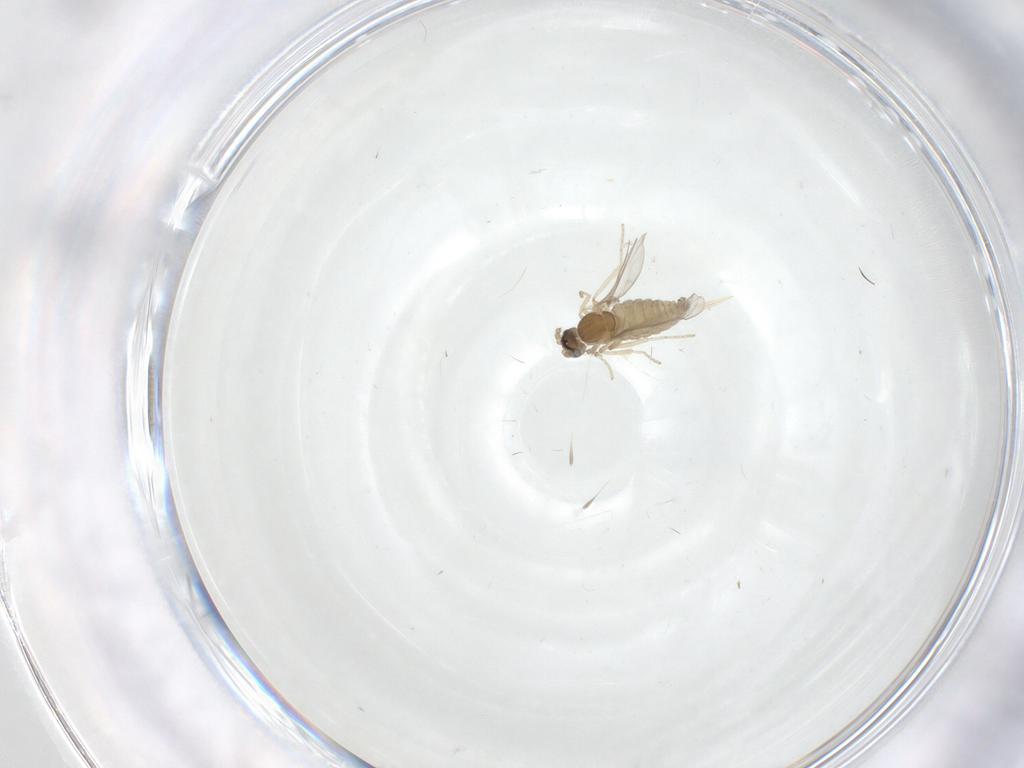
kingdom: Animalia
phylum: Arthropoda
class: Insecta
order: Diptera
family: Cecidomyiidae
